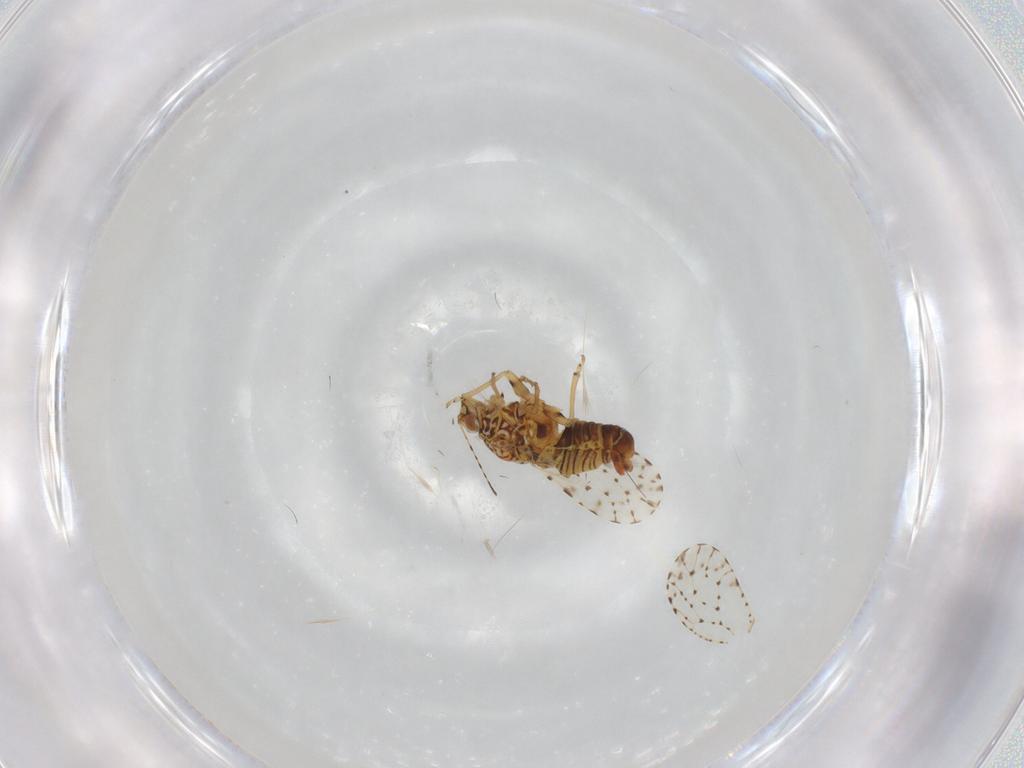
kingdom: Animalia
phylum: Arthropoda
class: Insecta
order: Hemiptera
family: Psyllidae
